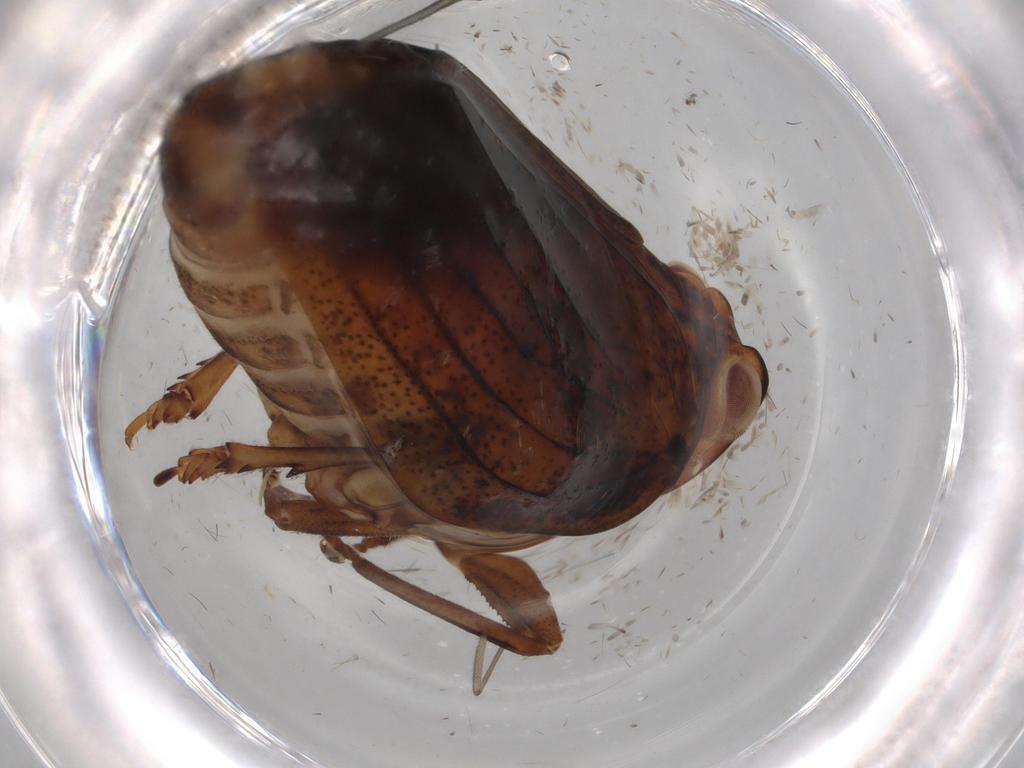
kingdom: Animalia
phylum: Arthropoda
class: Insecta
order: Hemiptera
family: Issidae
